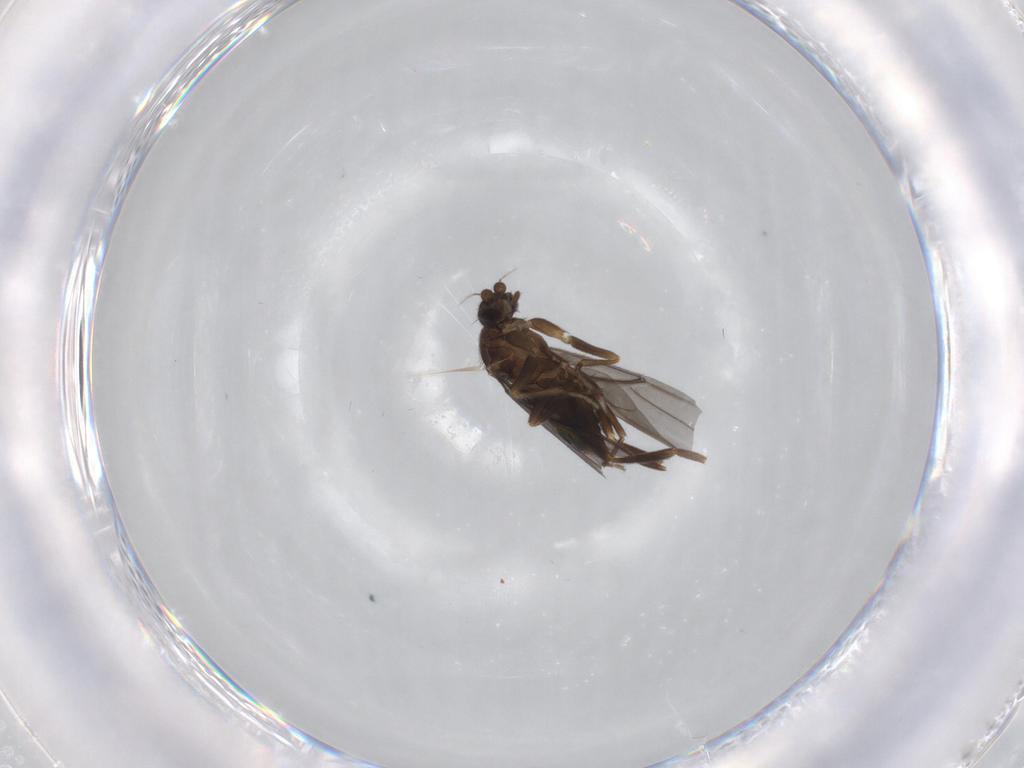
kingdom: Animalia
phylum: Arthropoda
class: Insecta
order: Diptera
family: Phoridae
